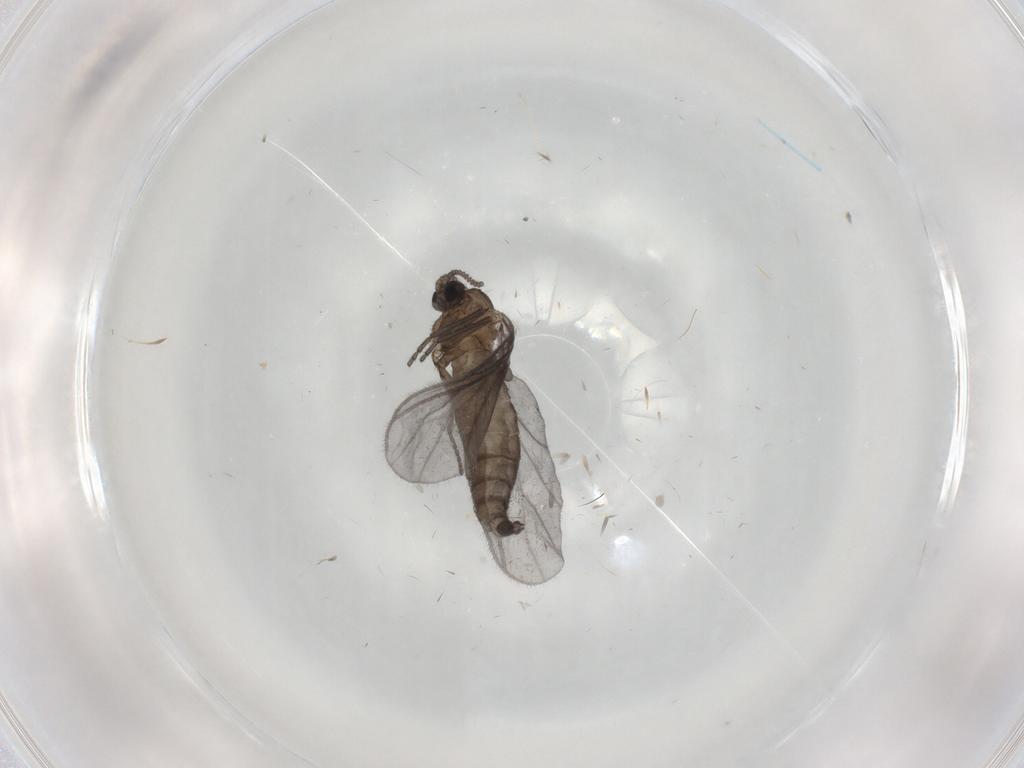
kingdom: Animalia
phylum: Arthropoda
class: Insecta
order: Diptera
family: Sciaridae
